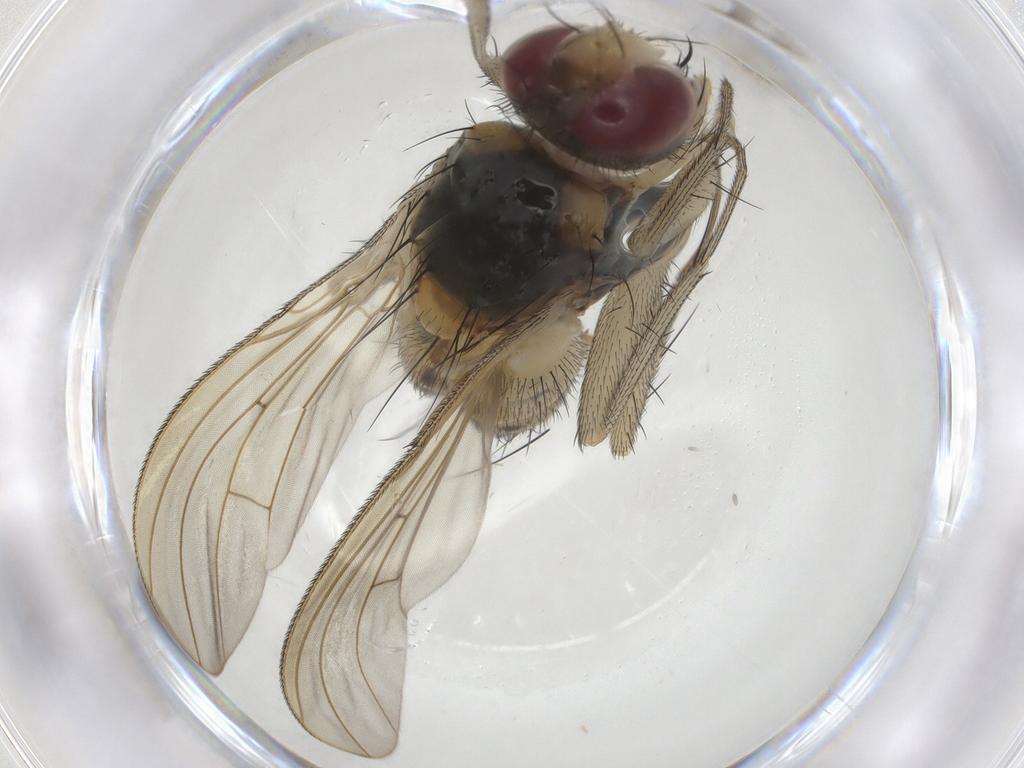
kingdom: Animalia
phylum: Arthropoda
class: Insecta
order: Diptera
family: Muscidae
